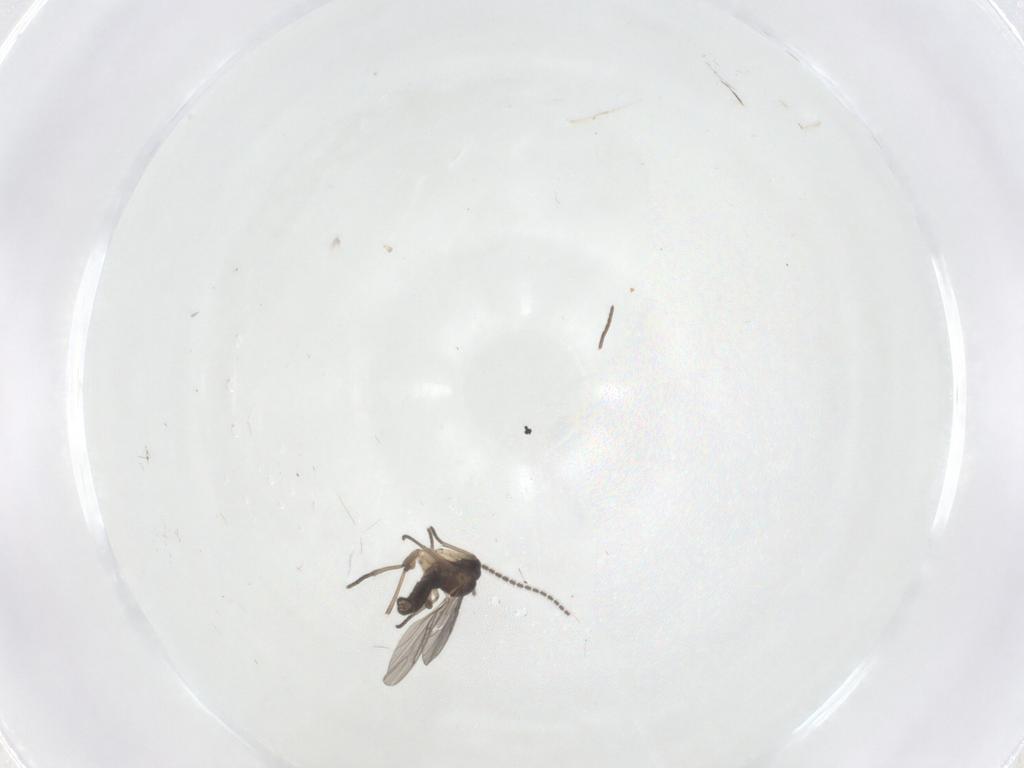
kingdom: Animalia
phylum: Arthropoda
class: Insecta
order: Diptera
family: Sciaridae
